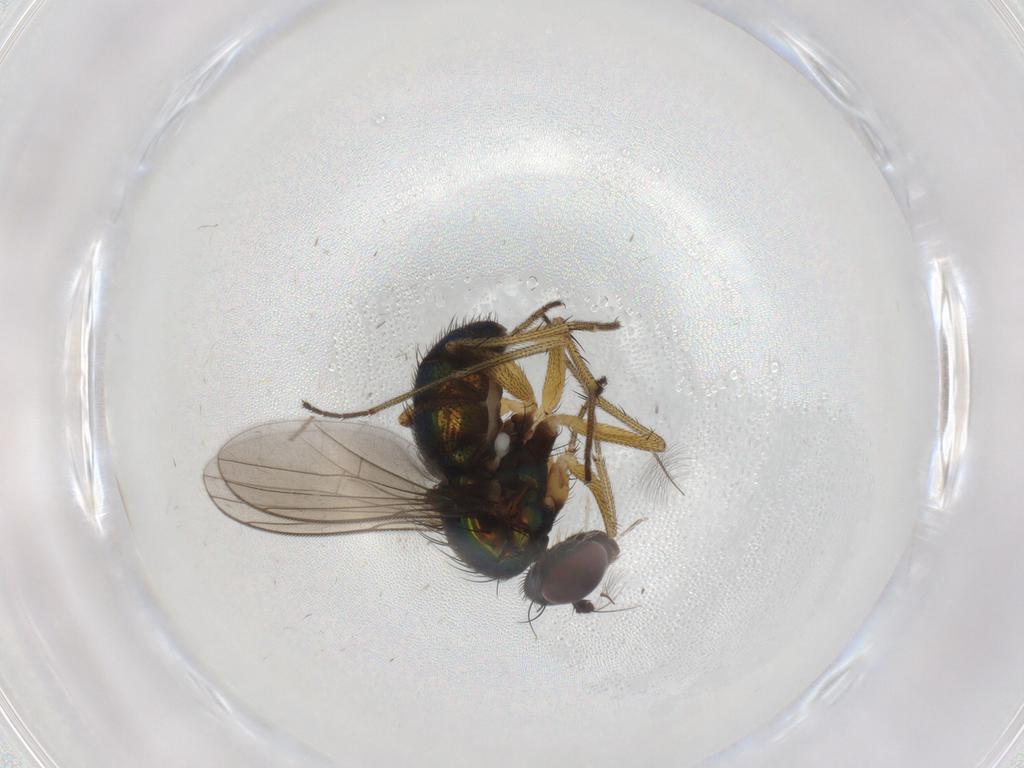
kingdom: Animalia
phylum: Arthropoda
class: Insecta
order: Diptera
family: Dolichopodidae
